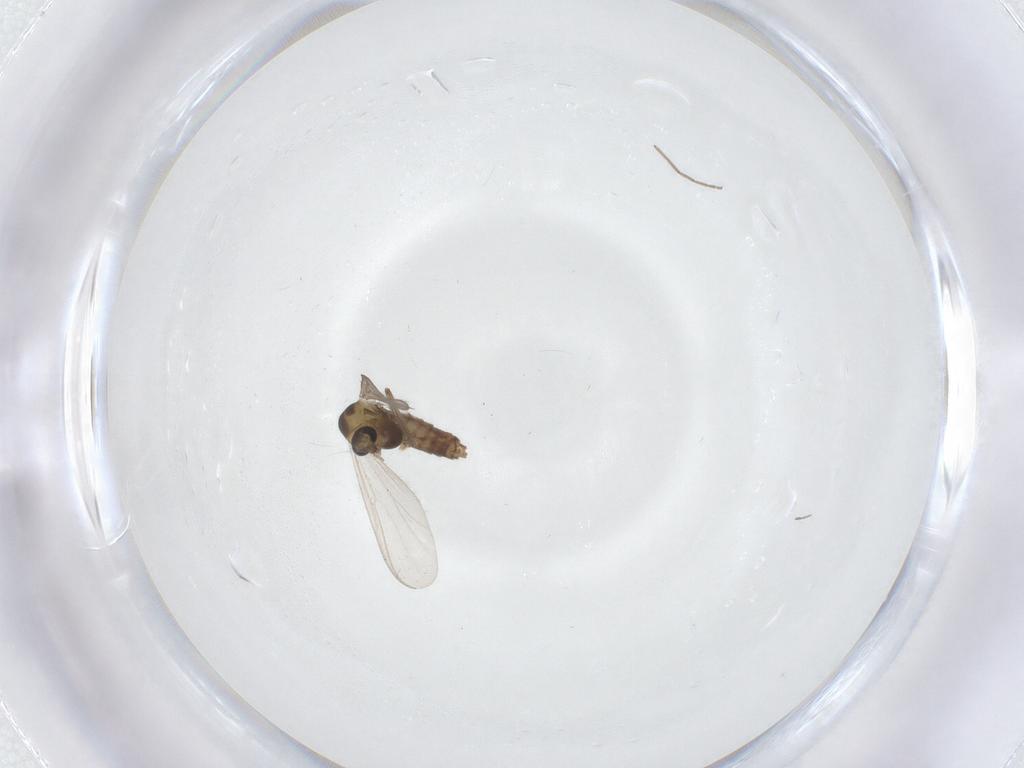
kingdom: Animalia
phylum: Arthropoda
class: Insecta
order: Diptera
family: Chironomidae
